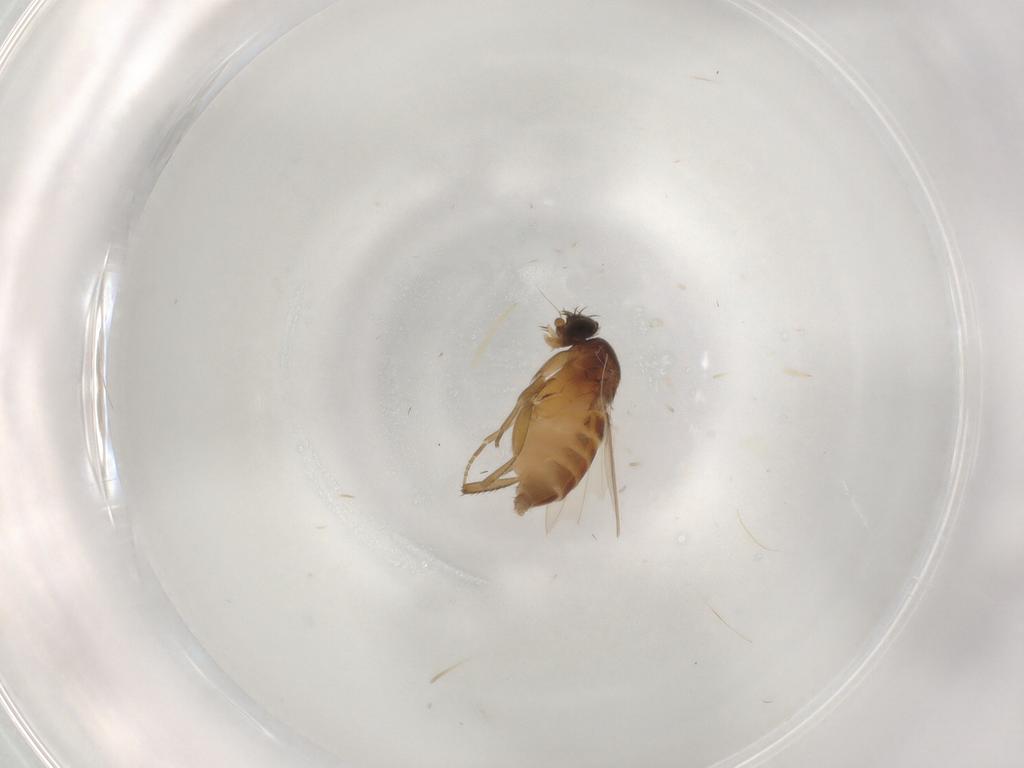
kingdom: Animalia
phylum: Arthropoda
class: Insecta
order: Diptera
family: Phoridae
